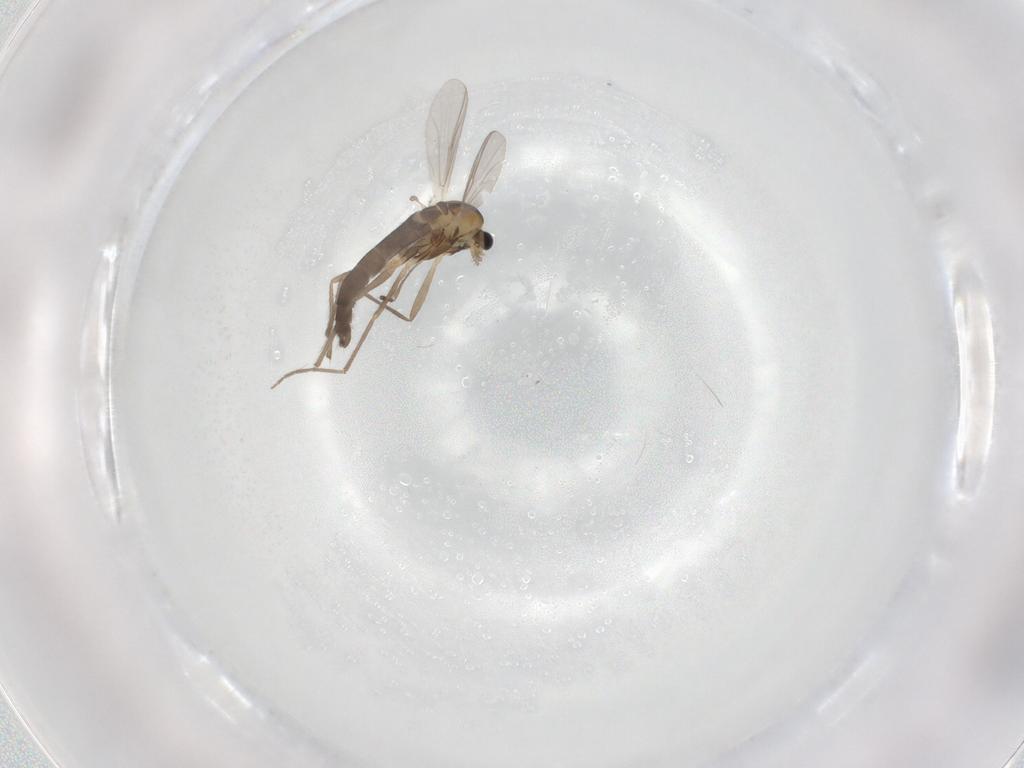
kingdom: Animalia
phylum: Arthropoda
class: Insecta
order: Diptera
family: Chironomidae
